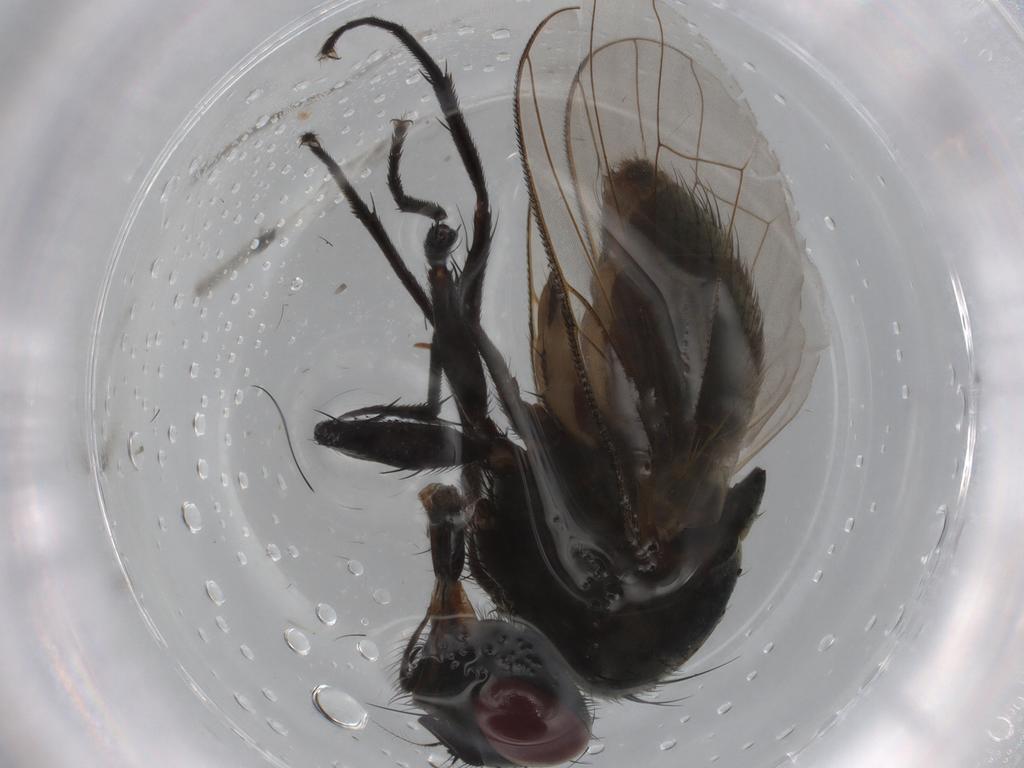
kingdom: Animalia
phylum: Arthropoda
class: Insecta
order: Diptera
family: Muscidae
